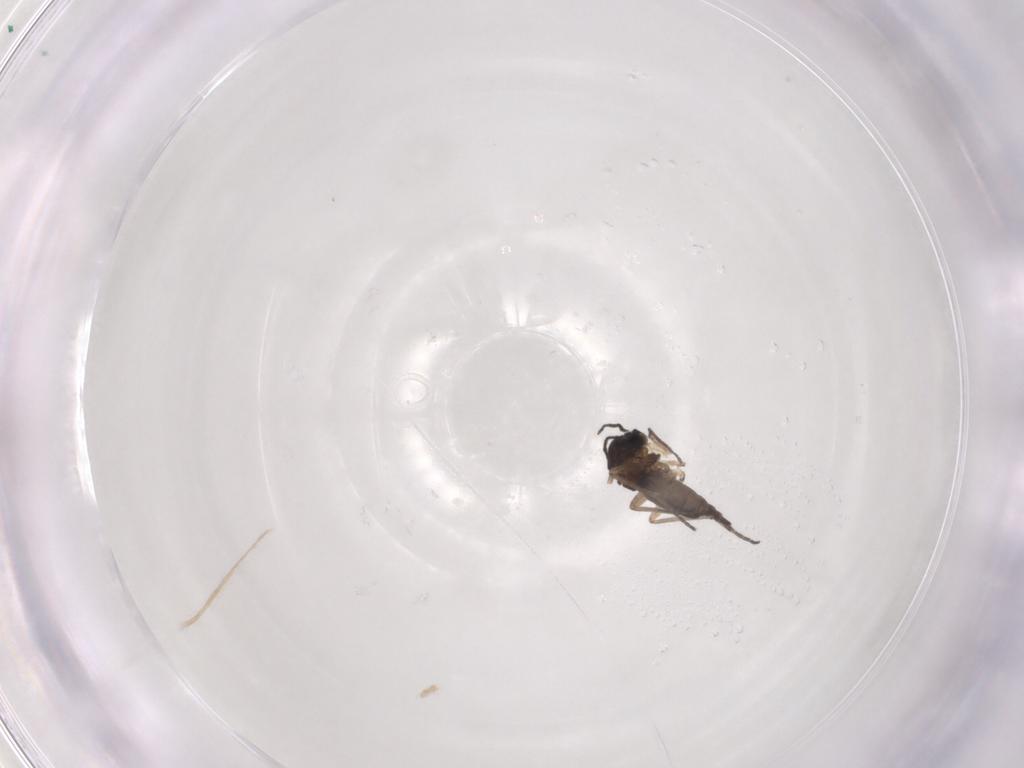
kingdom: Animalia
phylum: Arthropoda
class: Insecta
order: Diptera
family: Sciaridae
